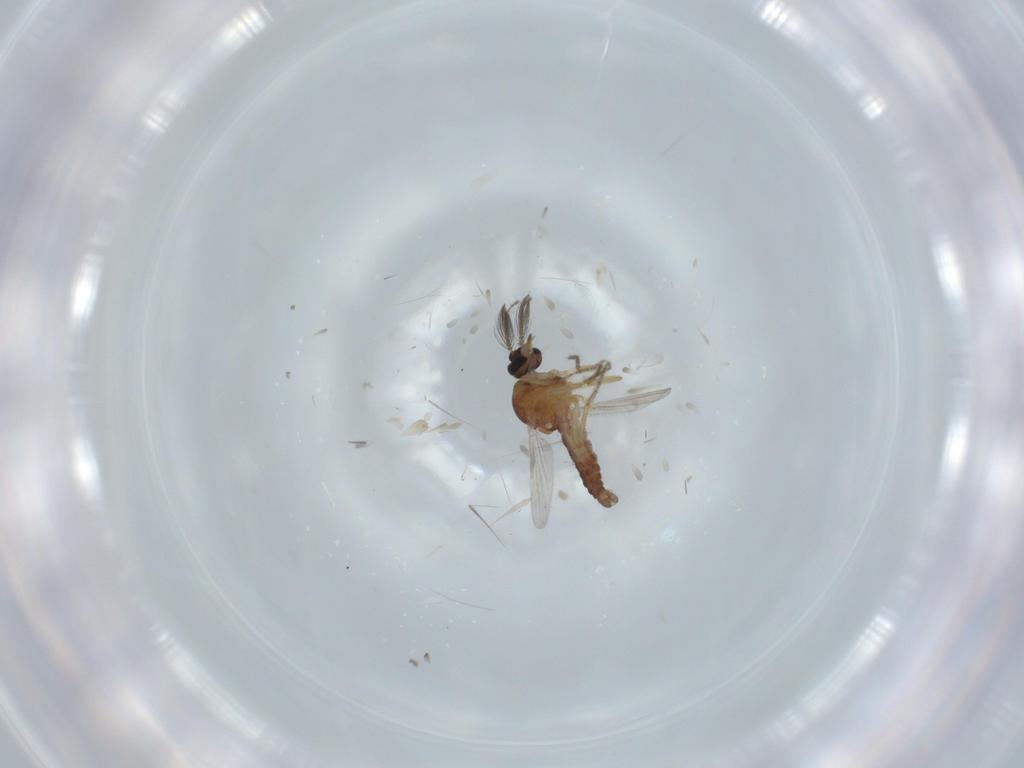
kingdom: Animalia
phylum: Arthropoda
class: Insecta
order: Diptera
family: Ceratopogonidae
